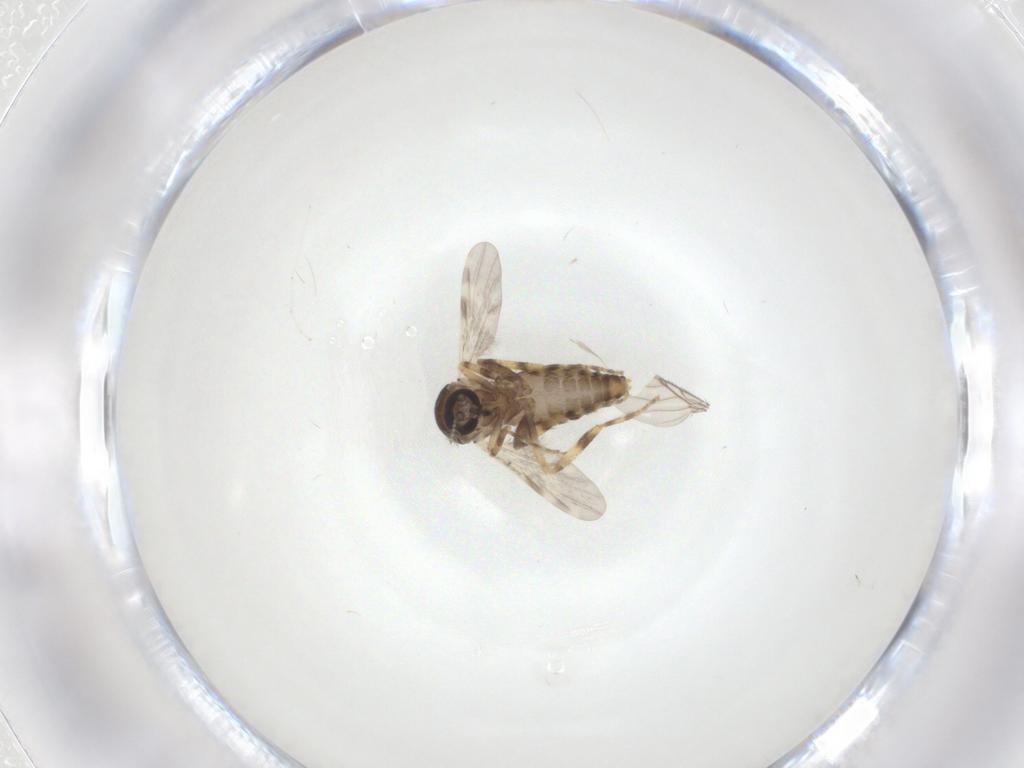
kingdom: Animalia
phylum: Arthropoda
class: Insecta
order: Diptera
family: Ceratopogonidae
